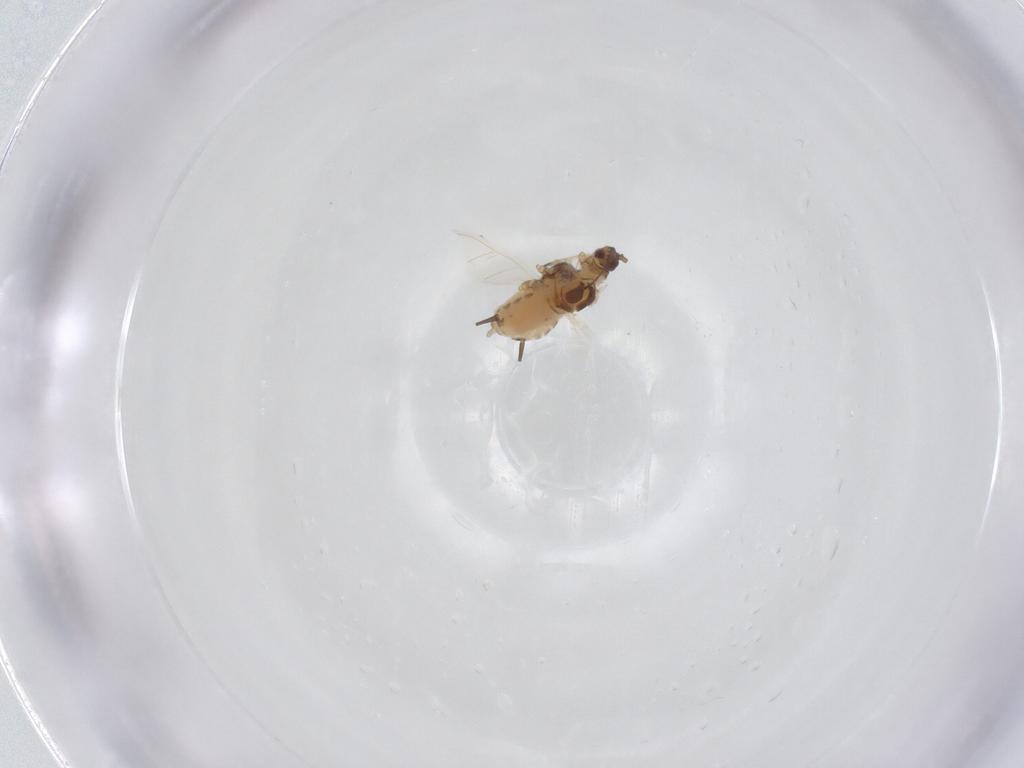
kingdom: Animalia
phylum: Arthropoda
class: Insecta
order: Hemiptera
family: Aphididae
